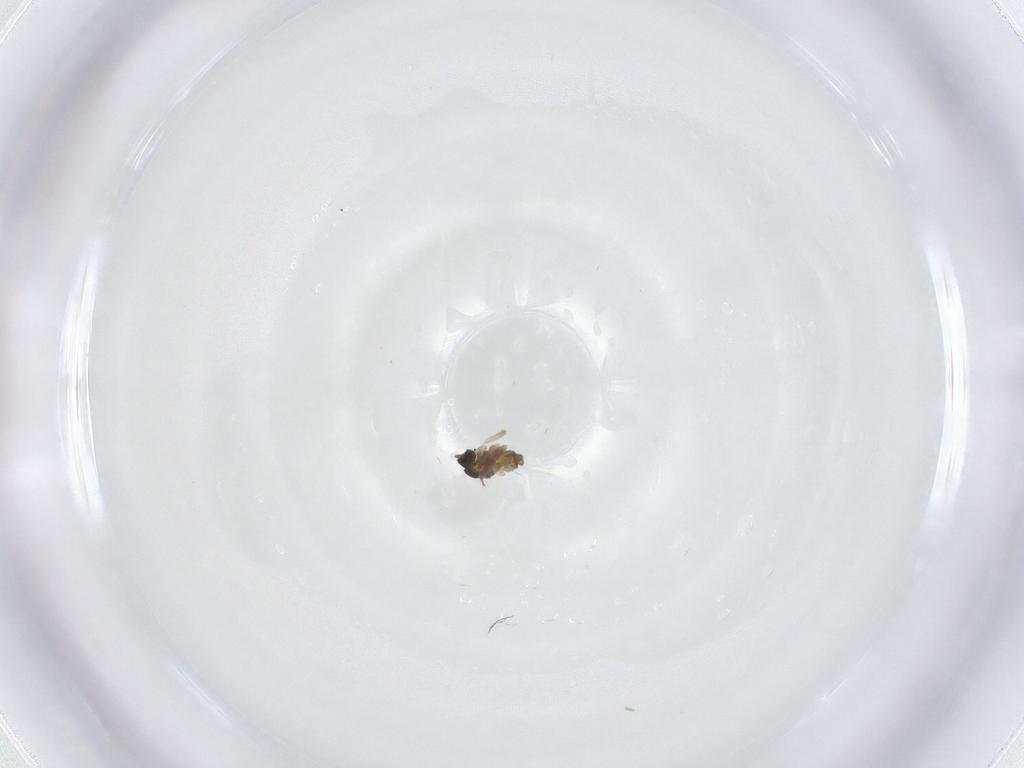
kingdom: Animalia
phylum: Arthropoda
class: Insecta
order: Diptera
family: Cecidomyiidae
